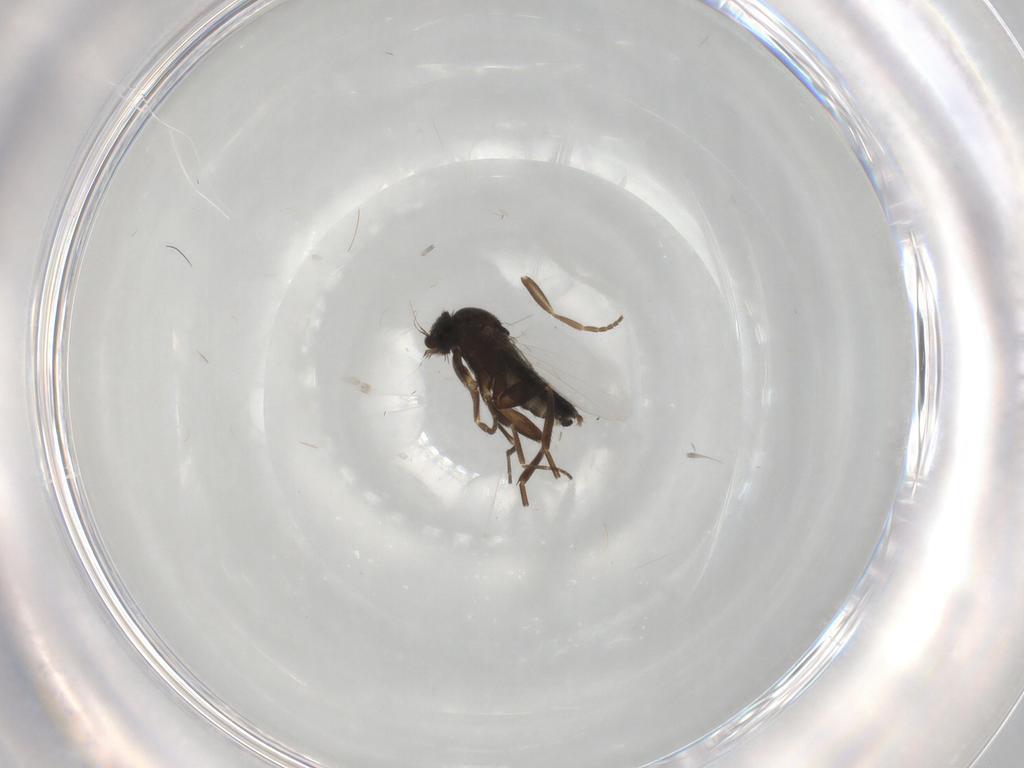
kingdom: Animalia
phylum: Arthropoda
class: Insecta
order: Diptera
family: Phoridae
